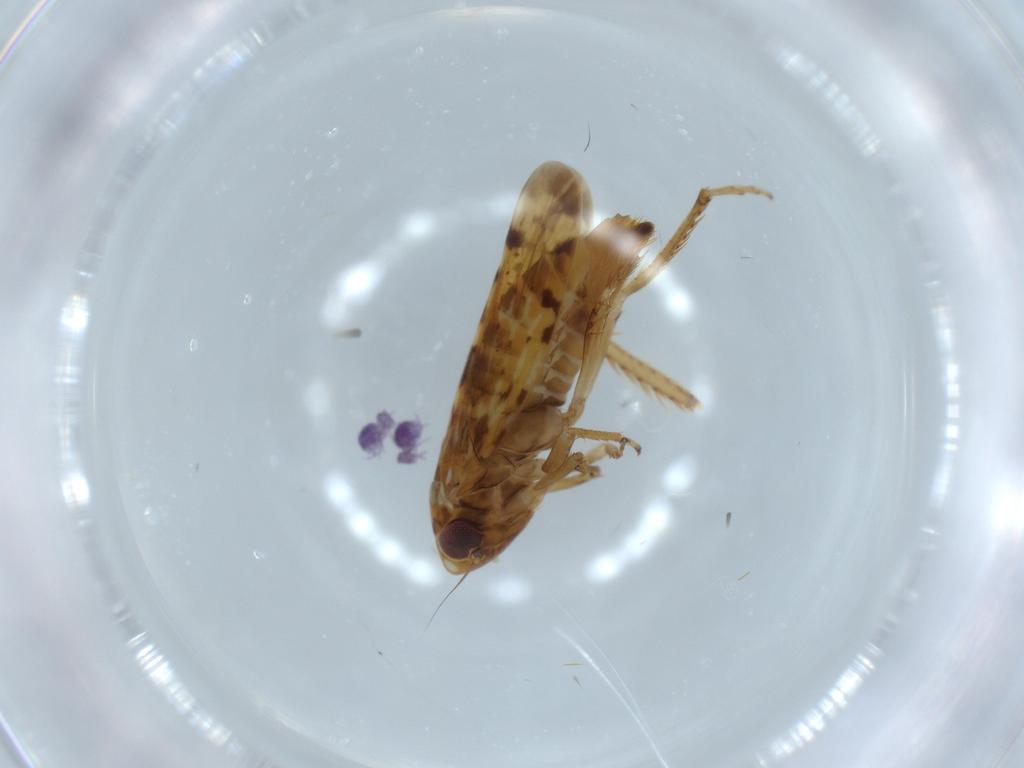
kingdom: Animalia
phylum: Arthropoda
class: Insecta
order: Hemiptera
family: Cicadellidae
